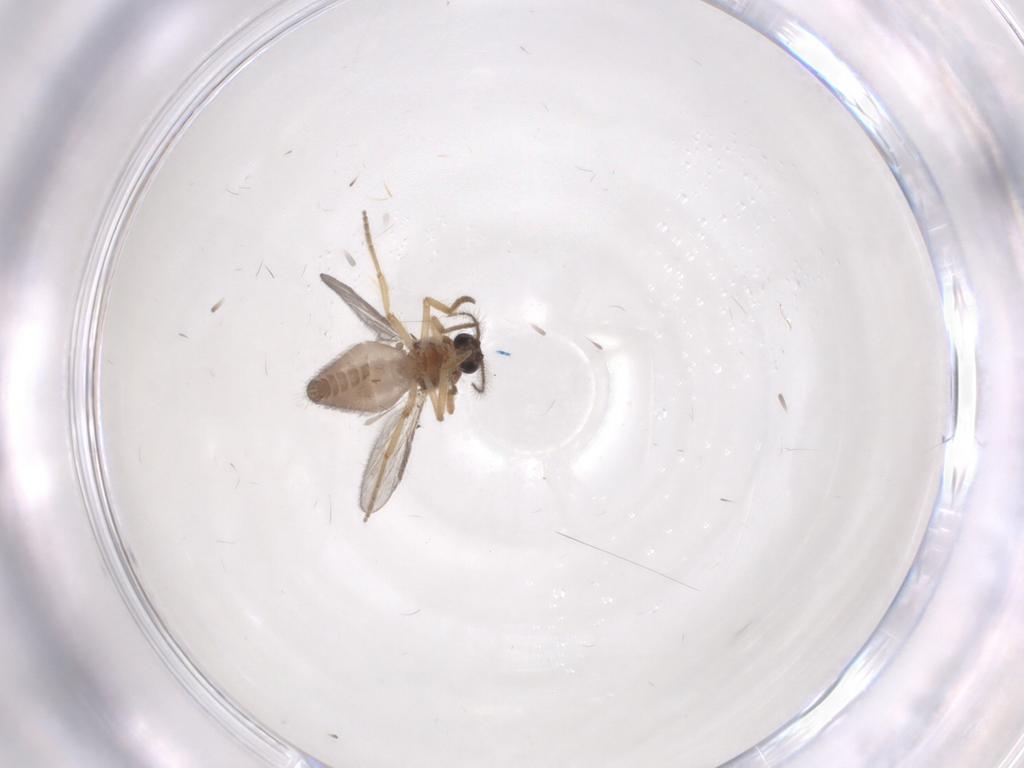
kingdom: Animalia
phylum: Arthropoda
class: Insecta
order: Diptera
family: Ceratopogonidae
